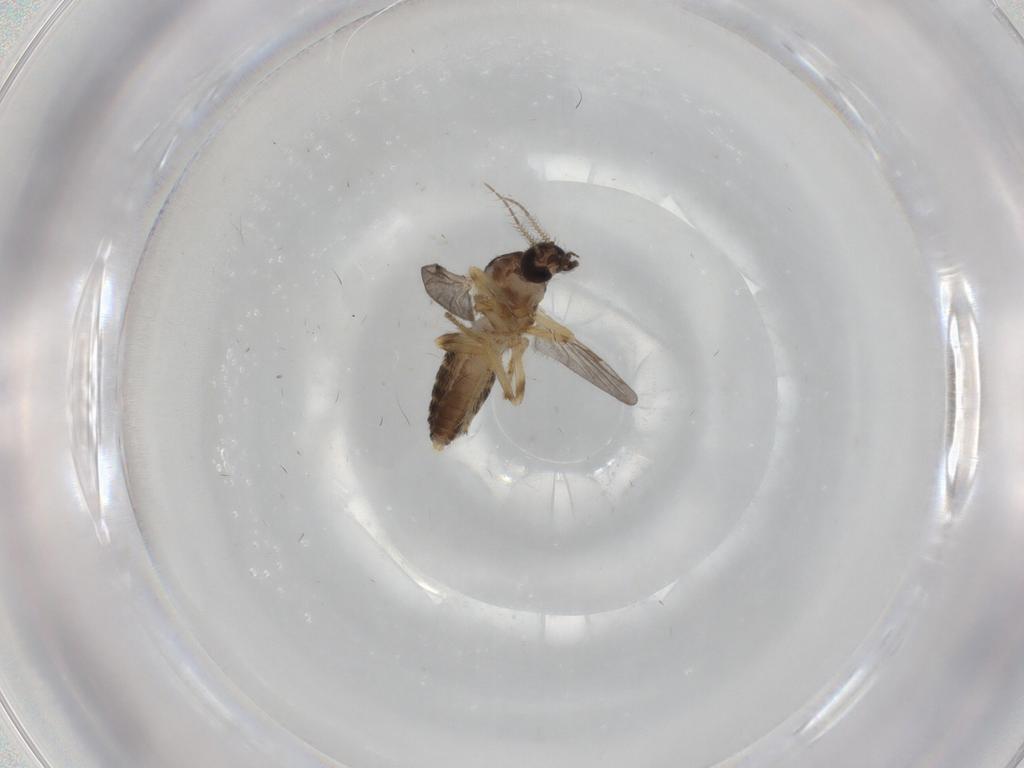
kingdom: Animalia
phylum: Arthropoda
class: Insecta
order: Diptera
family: Ceratopogonidae
